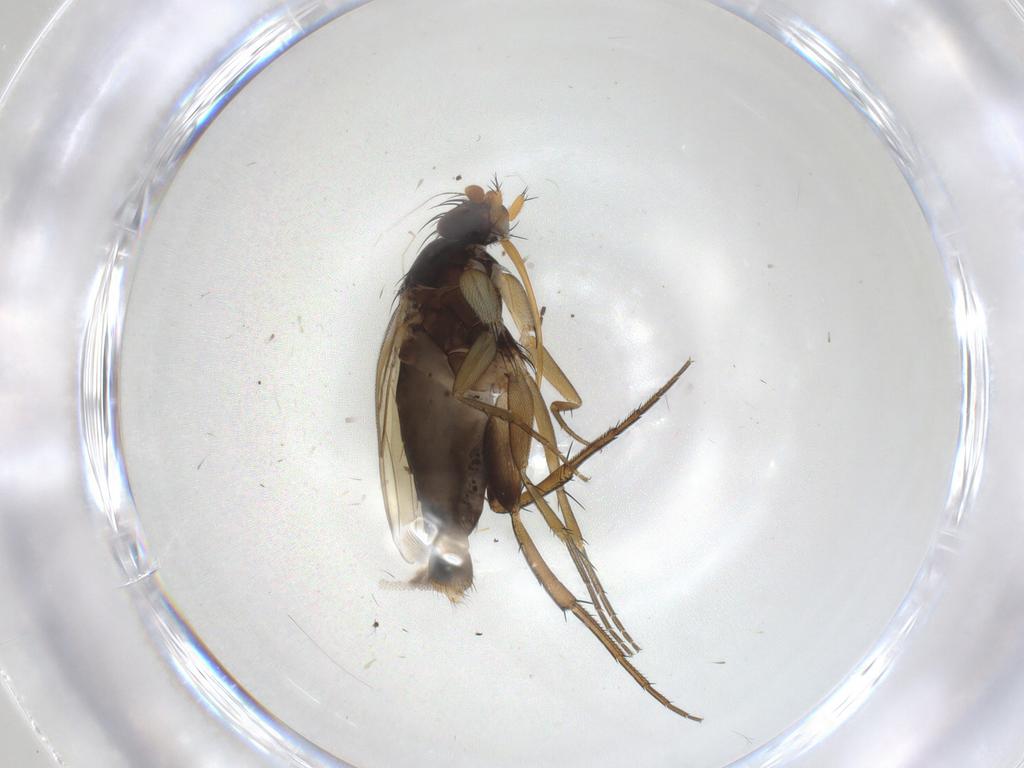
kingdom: Animalia
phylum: Arthropoda
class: Insecta
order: Diptera
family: Phoridae
